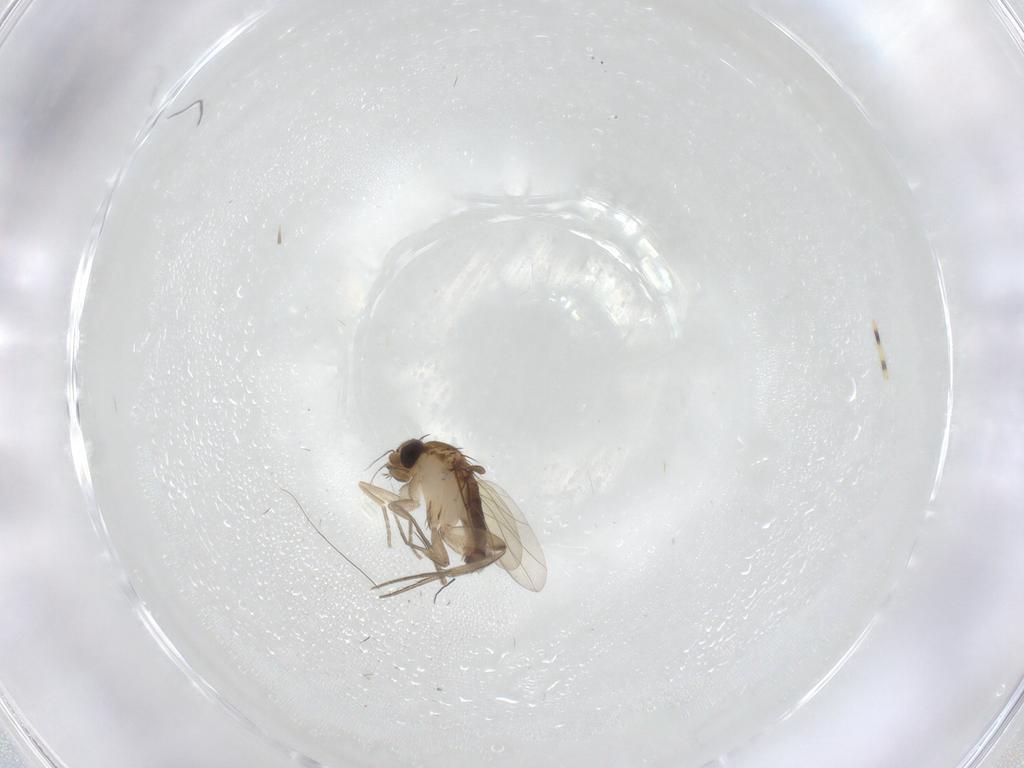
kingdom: Animalia
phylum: Arthropoda
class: Insecta
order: Diptera
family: Phoridae
